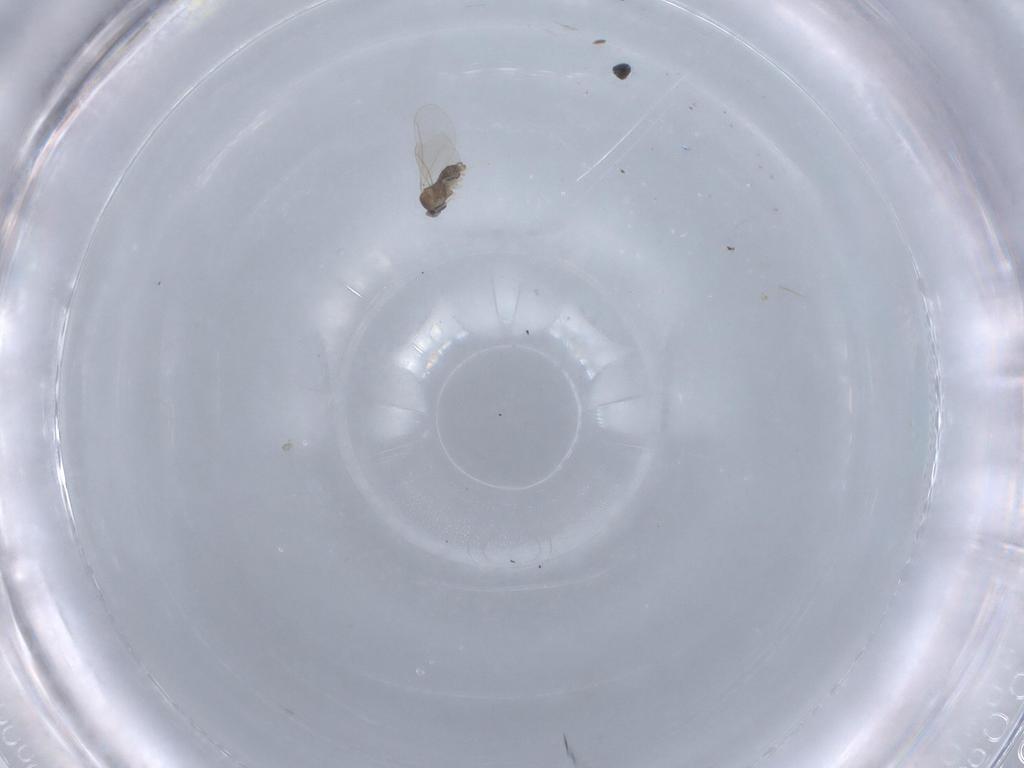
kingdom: Animalia
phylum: Arthropoda
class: Insecta
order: Diptera
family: Cecidomyiidae
